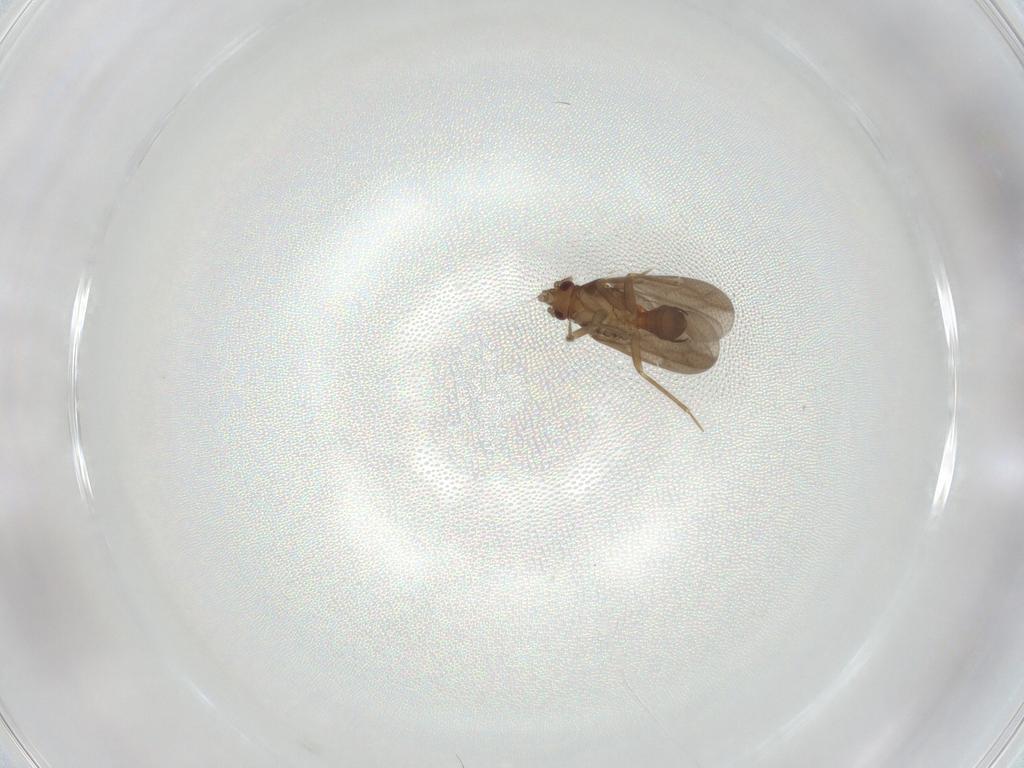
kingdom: Animalia
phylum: Arthropoda
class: Insecta
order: Hemiptera
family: Ceratocombidae
